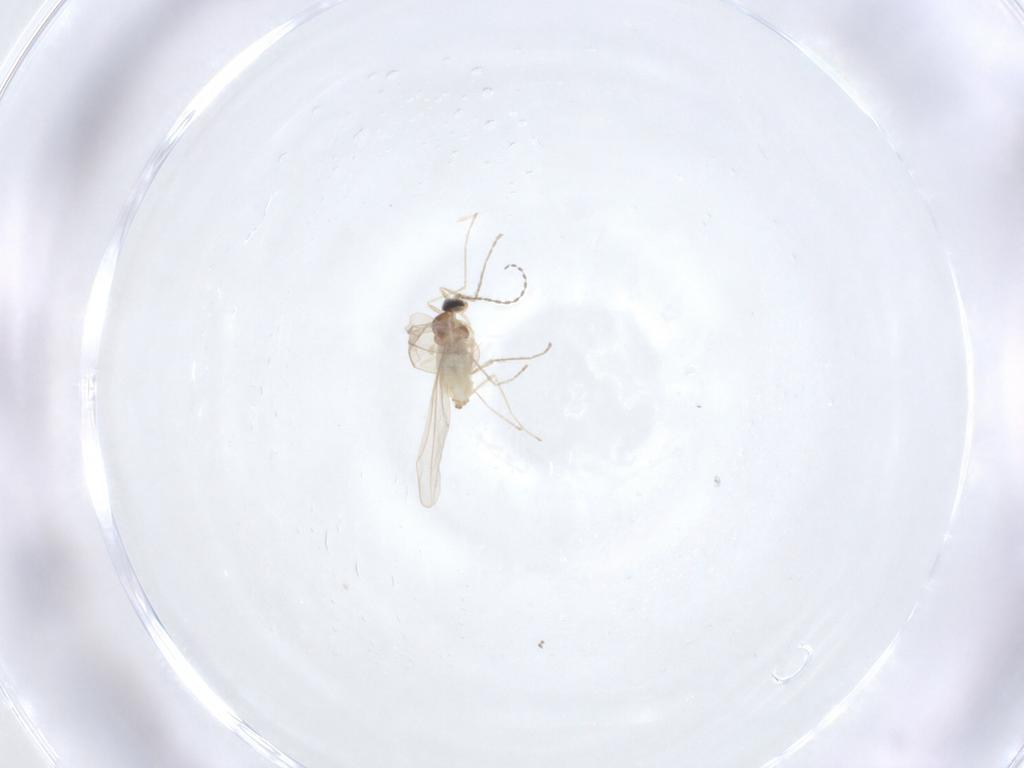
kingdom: Animalia
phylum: Arthropoda
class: Insecta
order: Diptera
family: Cecidomyiidae
